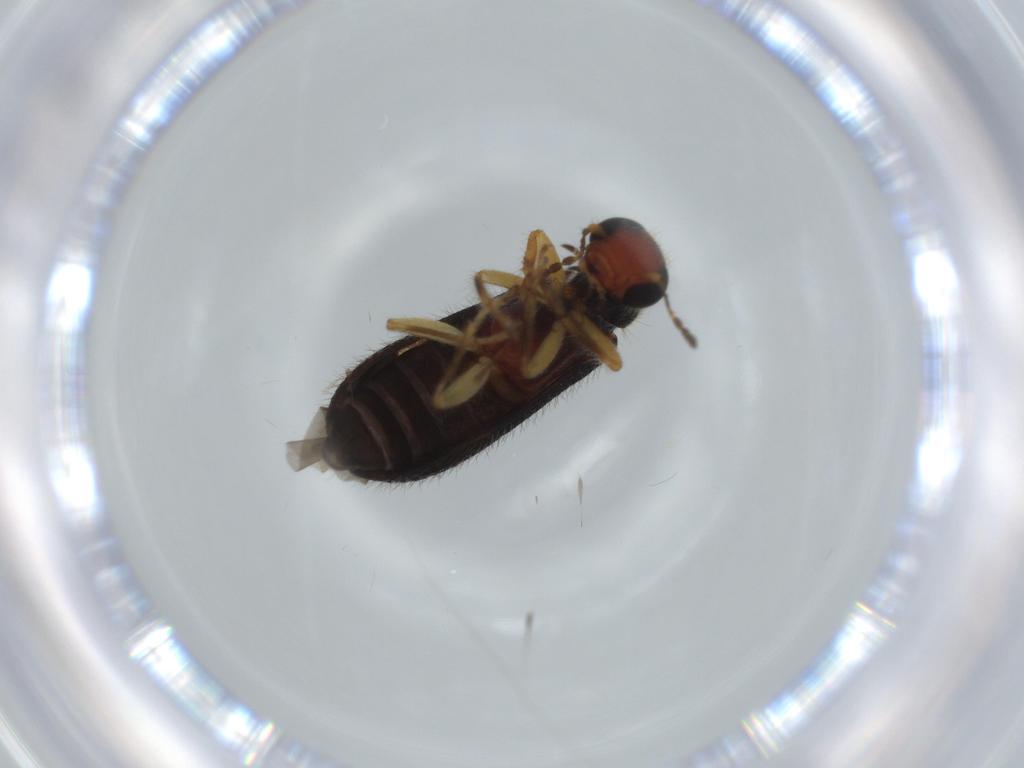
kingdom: Animalia
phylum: Arthropoda
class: Insecta
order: Coleoptera
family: Cleridae
